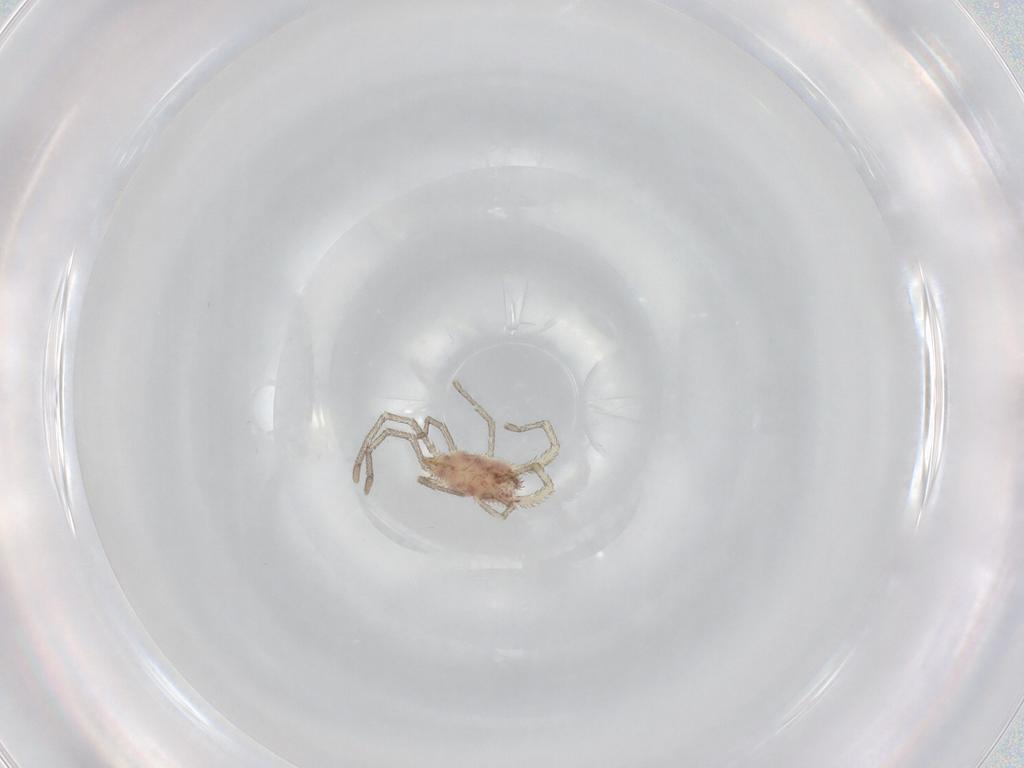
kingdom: Animalia
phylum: Arthropoda
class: Arachnida
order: Trombidiformes
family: Smarididae
